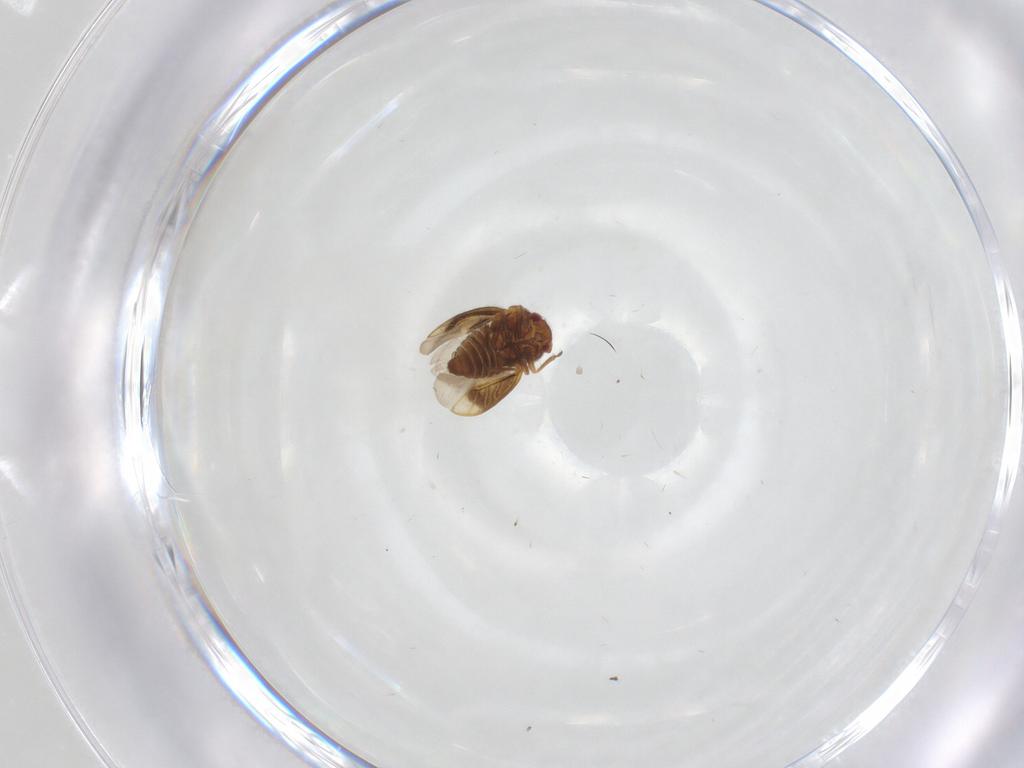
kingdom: Animalia
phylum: Arthropoda
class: Insecta
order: Hemiptera
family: Schizopteridae
